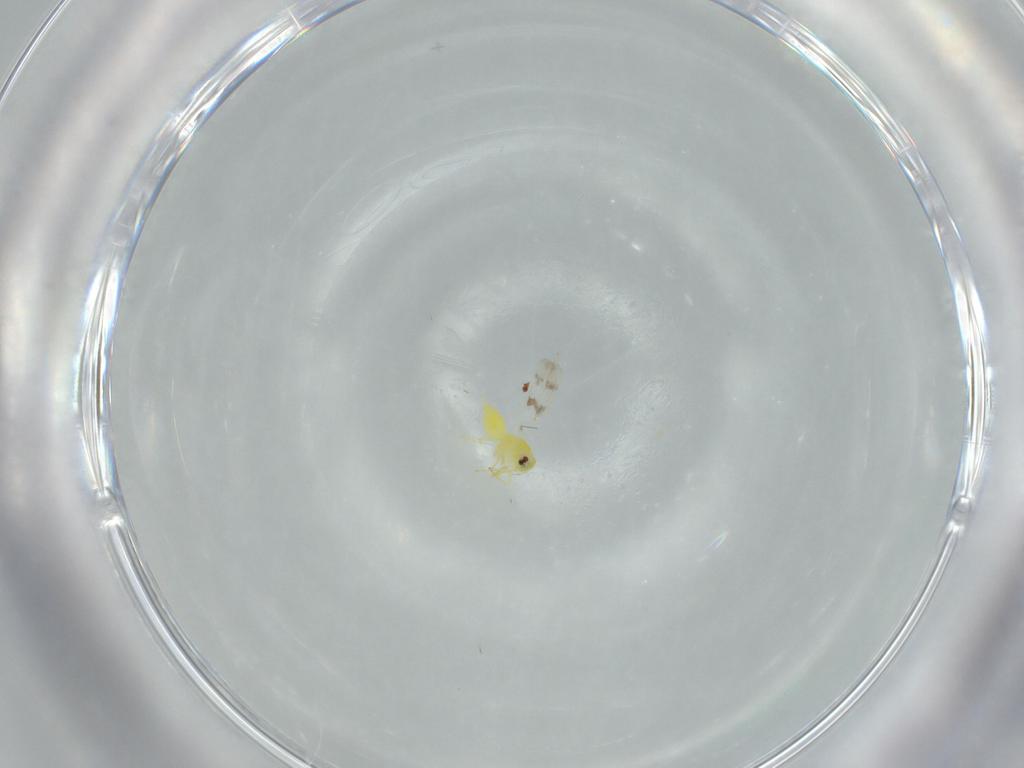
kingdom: Animalia
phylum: Arthropoda
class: Insecta
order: Hemiptera
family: Aleyrodidae
